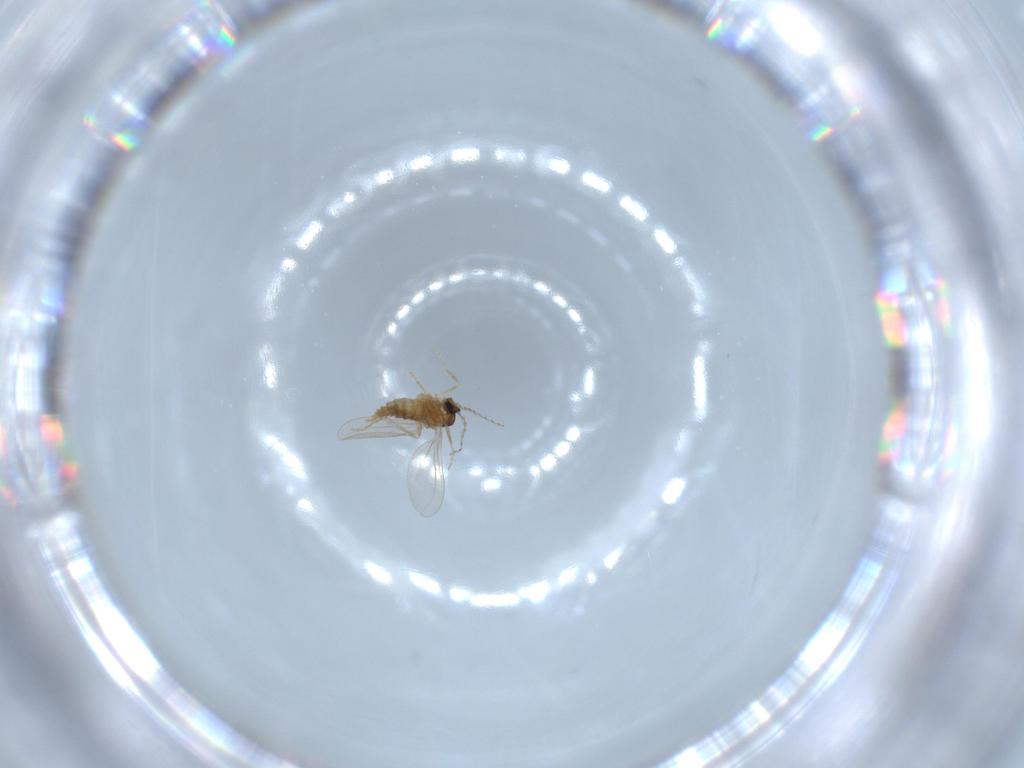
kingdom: Animalia
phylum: Arthropoda
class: Insecta
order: Diptera
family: Cecidomyiidae
